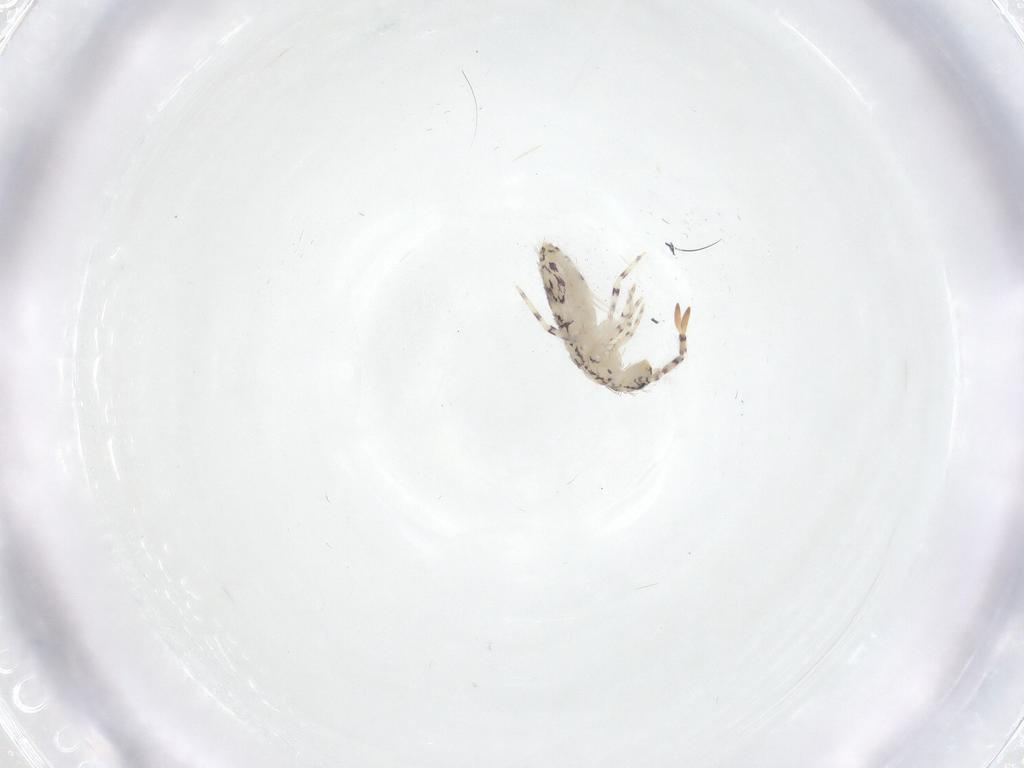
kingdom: Animalia
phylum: Arthropoda
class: Collembola
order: Entomobryomorpha
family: Entomobryidae
